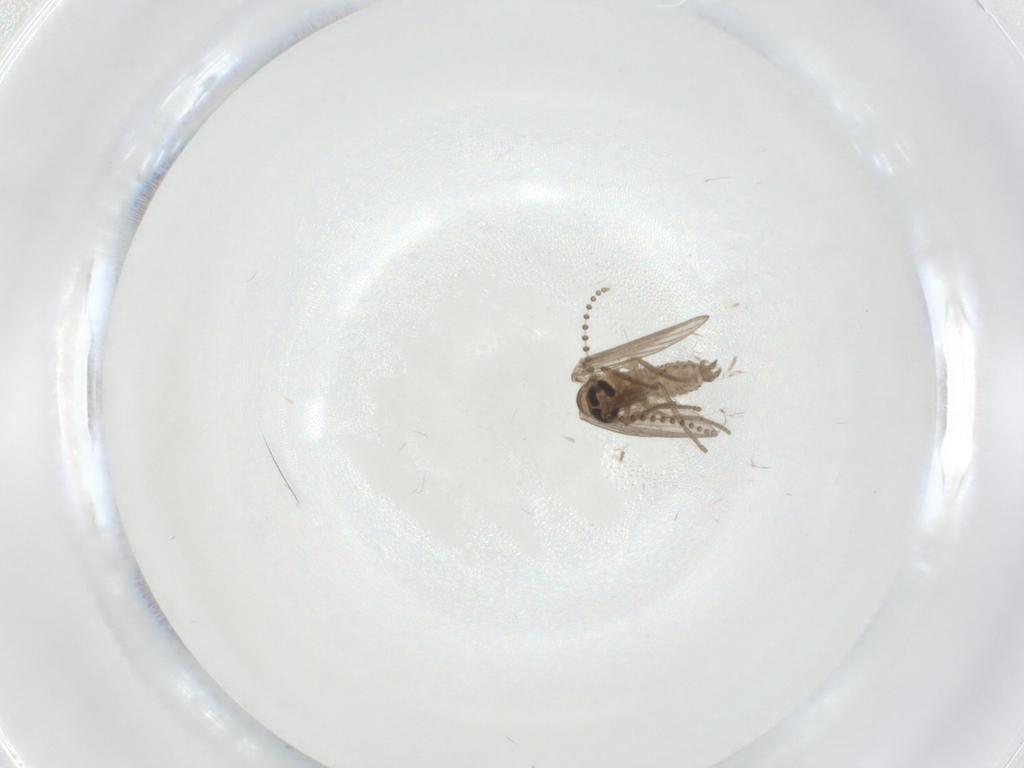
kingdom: Animalia
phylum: Arthropoda
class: Insecta
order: Diptera
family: Psychodidae
